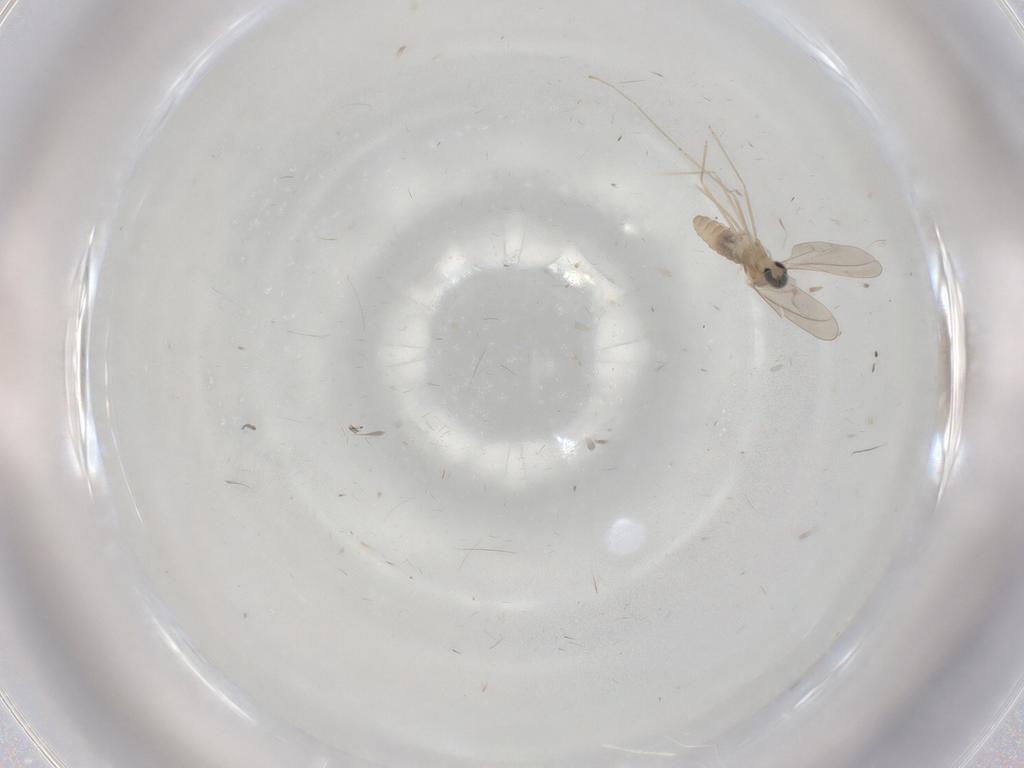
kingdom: Animalia
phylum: Arthropoda
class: Insecta
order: Diptera
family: Cecidomyiidae
